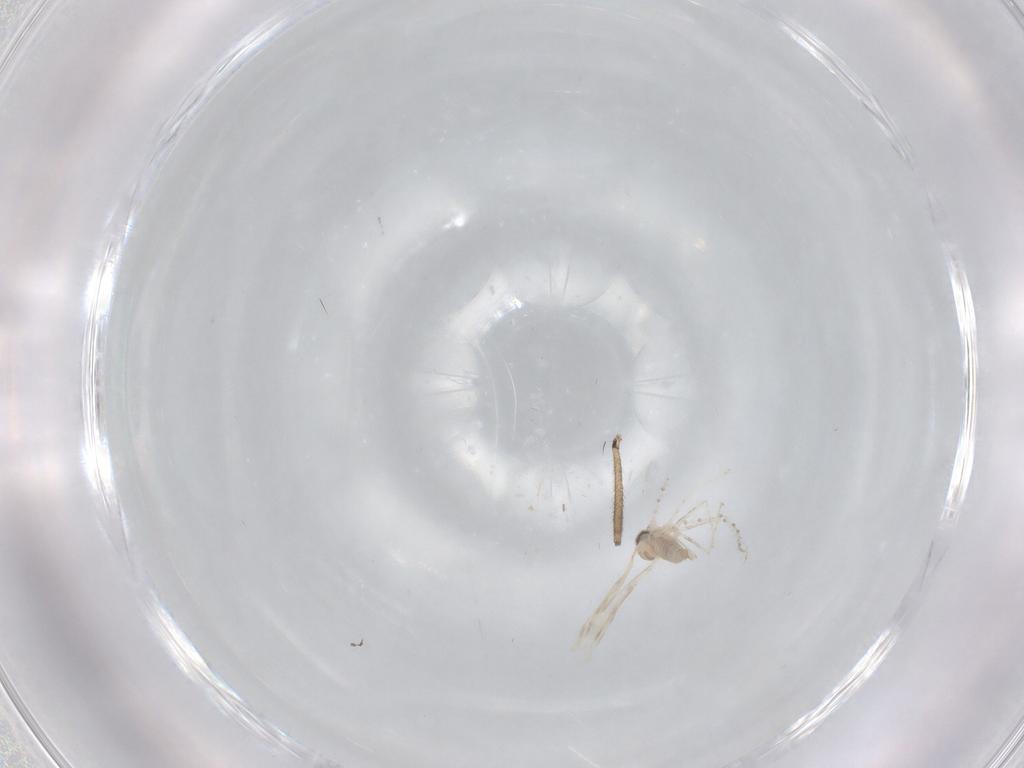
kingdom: Animalia
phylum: Arthropoda
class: Insecta
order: Diptera
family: Cecidomyiidae
